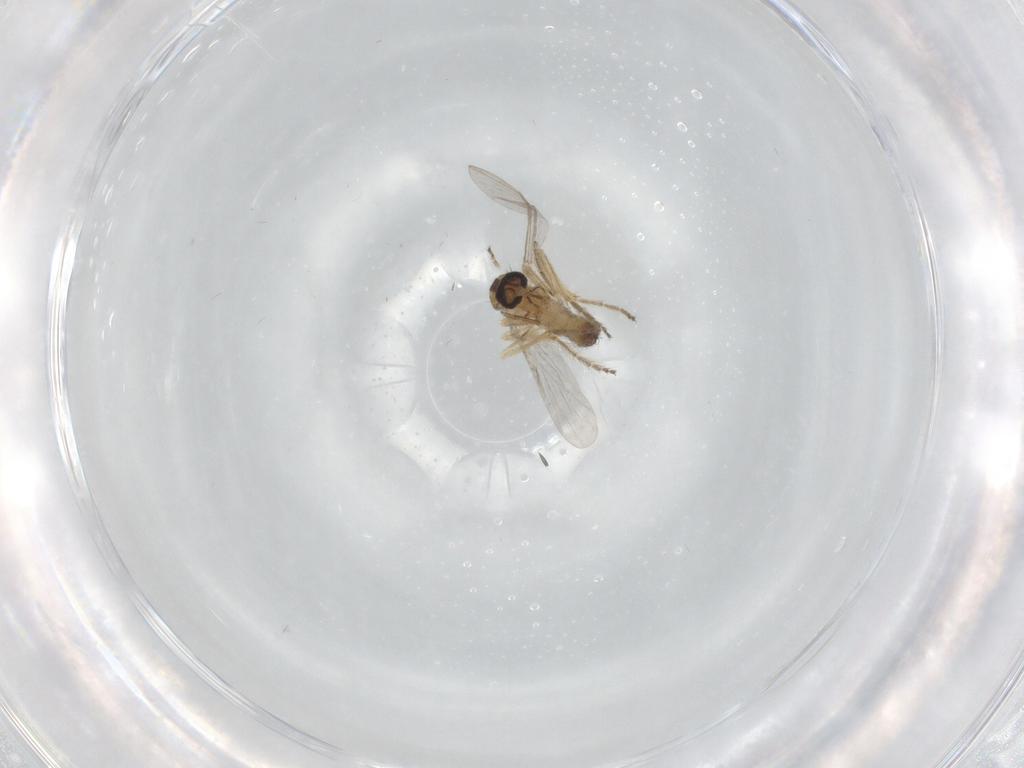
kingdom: Animalia
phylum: Arthropoda
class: Insecta
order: Diptera
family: Ceratopogonidae
